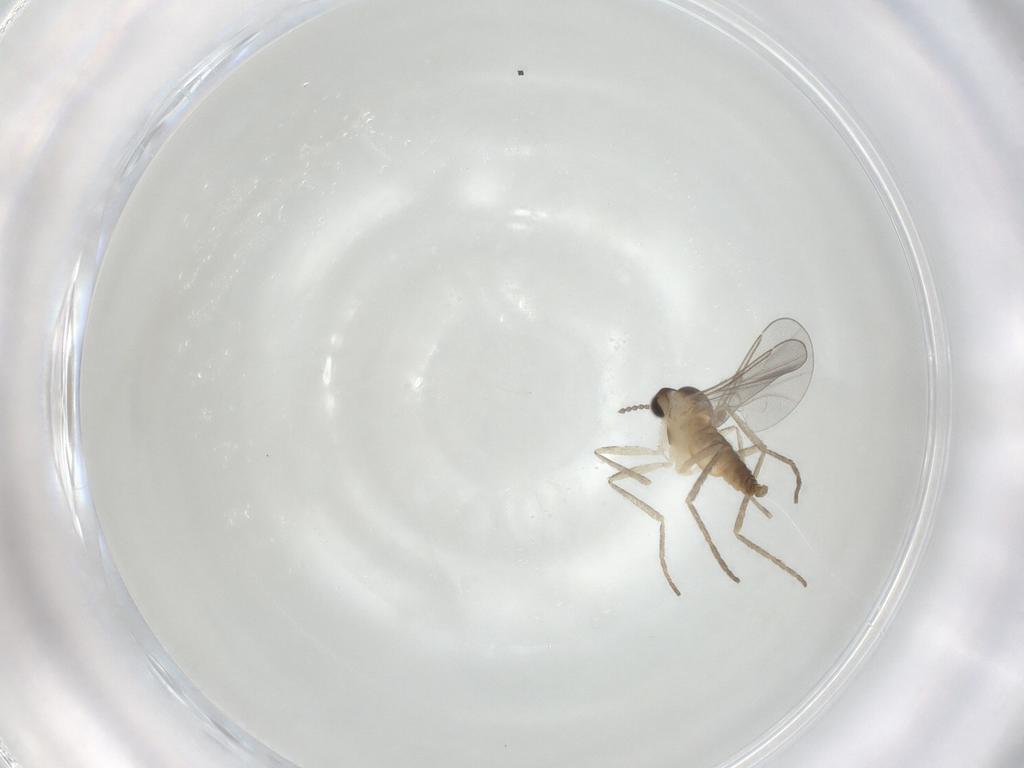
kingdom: Animalia
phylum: Arthropoda
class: Insecta
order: Diptera
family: Cecidomyiidae
